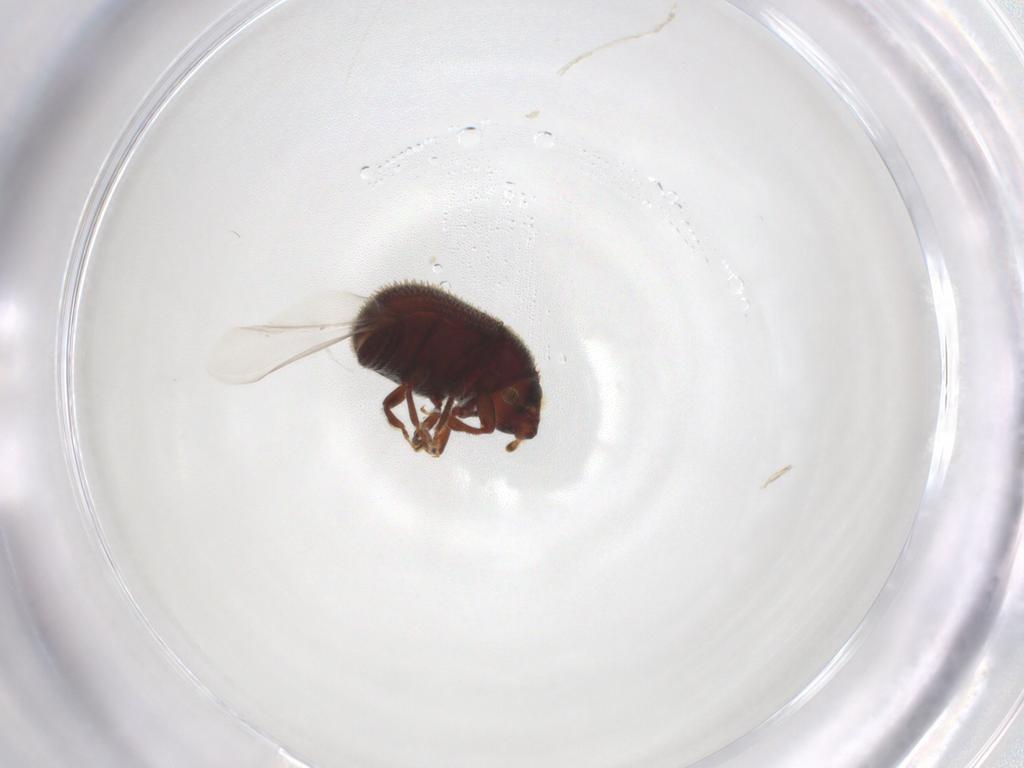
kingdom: Animalia
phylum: Arthropoda
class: Insecta
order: Coleoptera
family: Curculionidae
